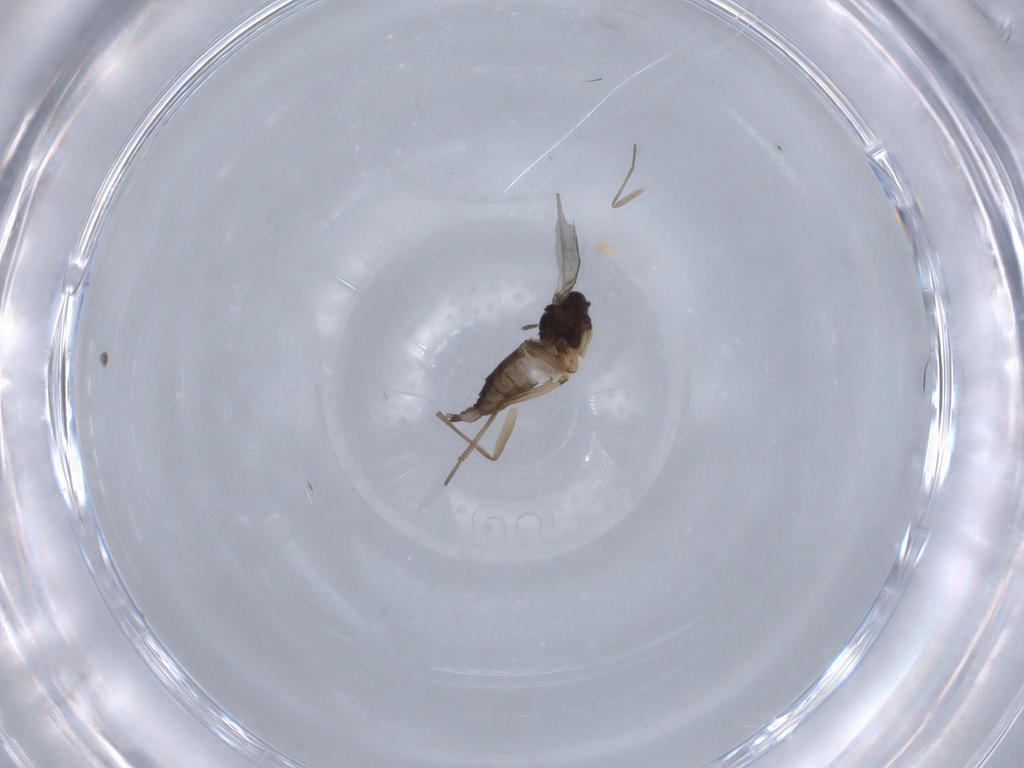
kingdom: Animalia
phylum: Arthropoda
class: Insecta
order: Diptera
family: Sciaridae
